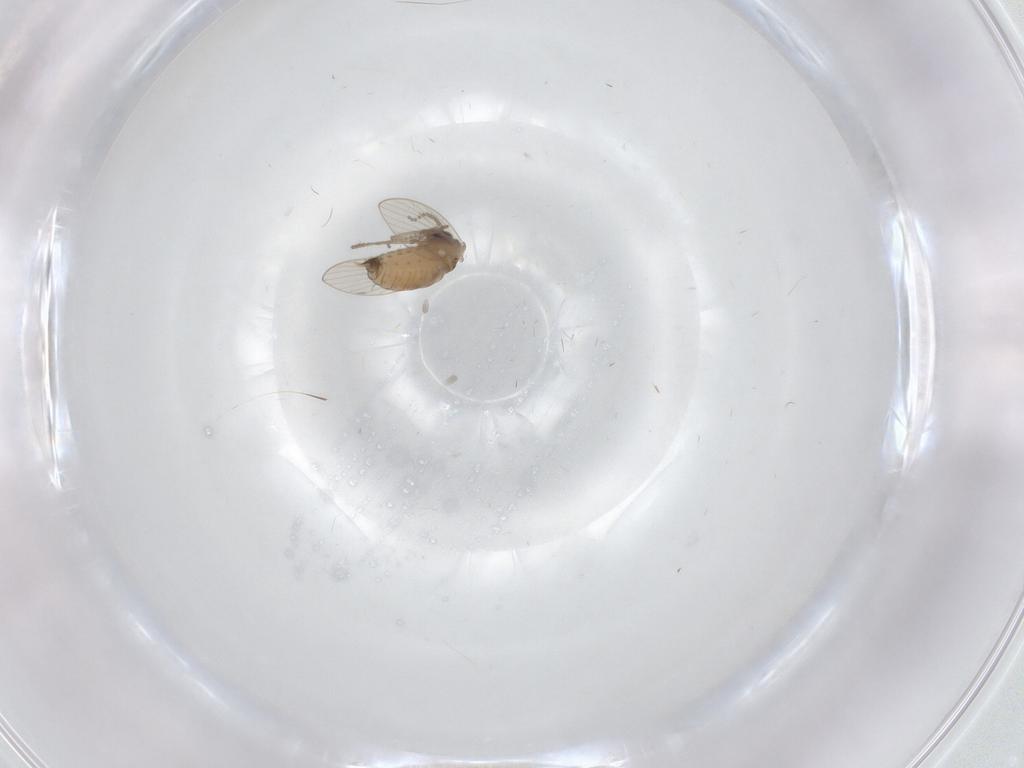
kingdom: Animalia
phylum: Arthropoda
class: Insecta
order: Diptera
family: Psychodidae
